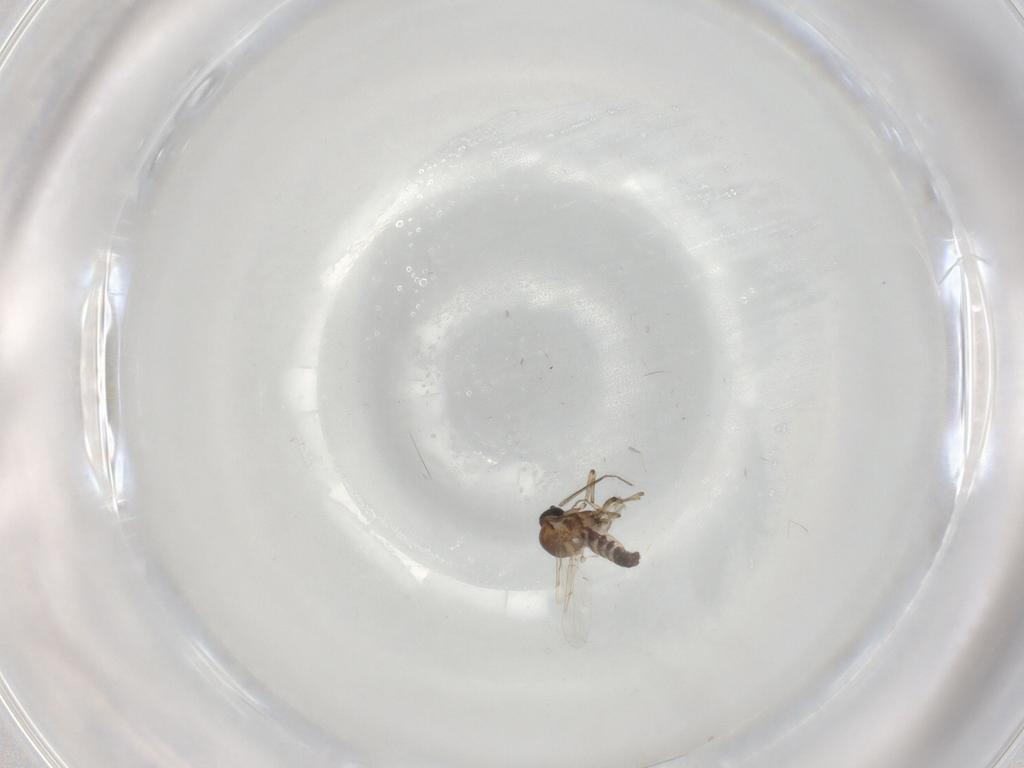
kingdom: Animalia
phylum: Arthropoda
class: Insecta
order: Diptera
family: Ceratopogonidae
